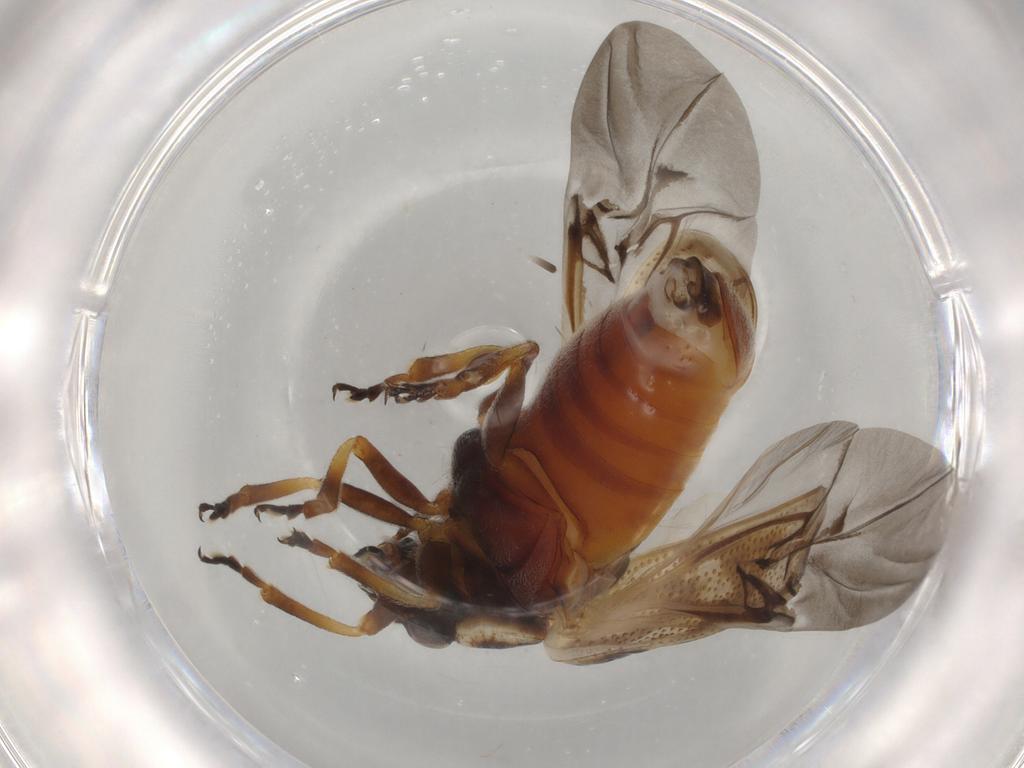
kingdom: Animalia
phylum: Arthropoda
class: Insecta
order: Coleoptera
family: Chrysomelidae
